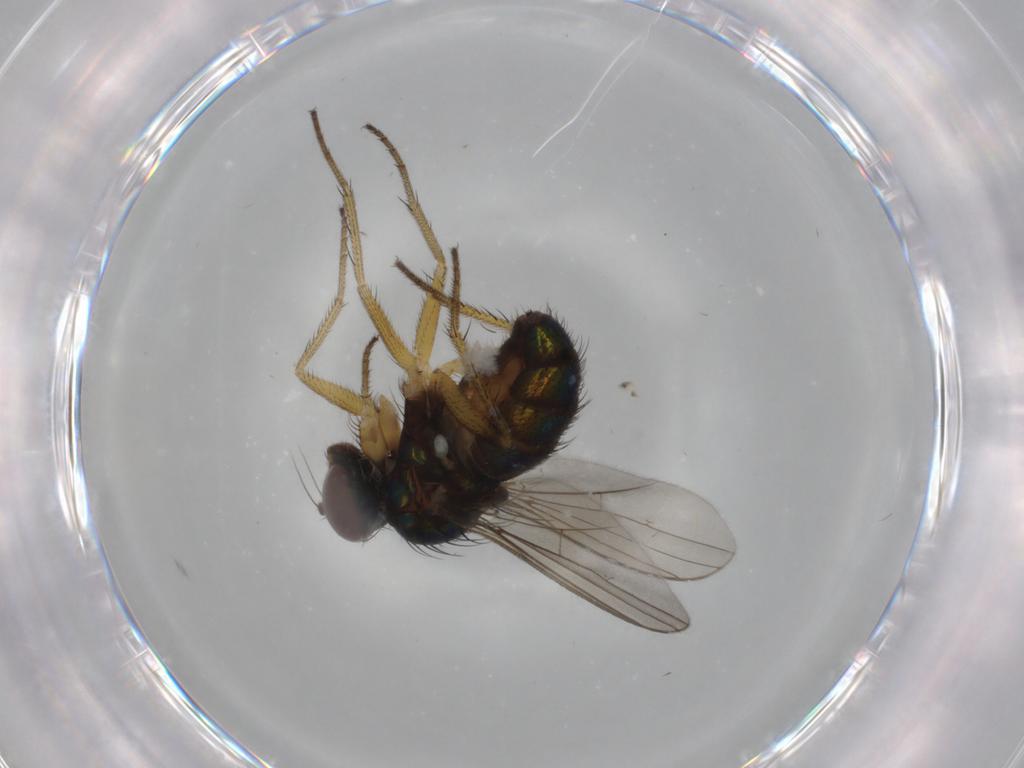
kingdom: Animalia
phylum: Arthropoda
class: Insecta
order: Diptera
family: Dolichopodidae
